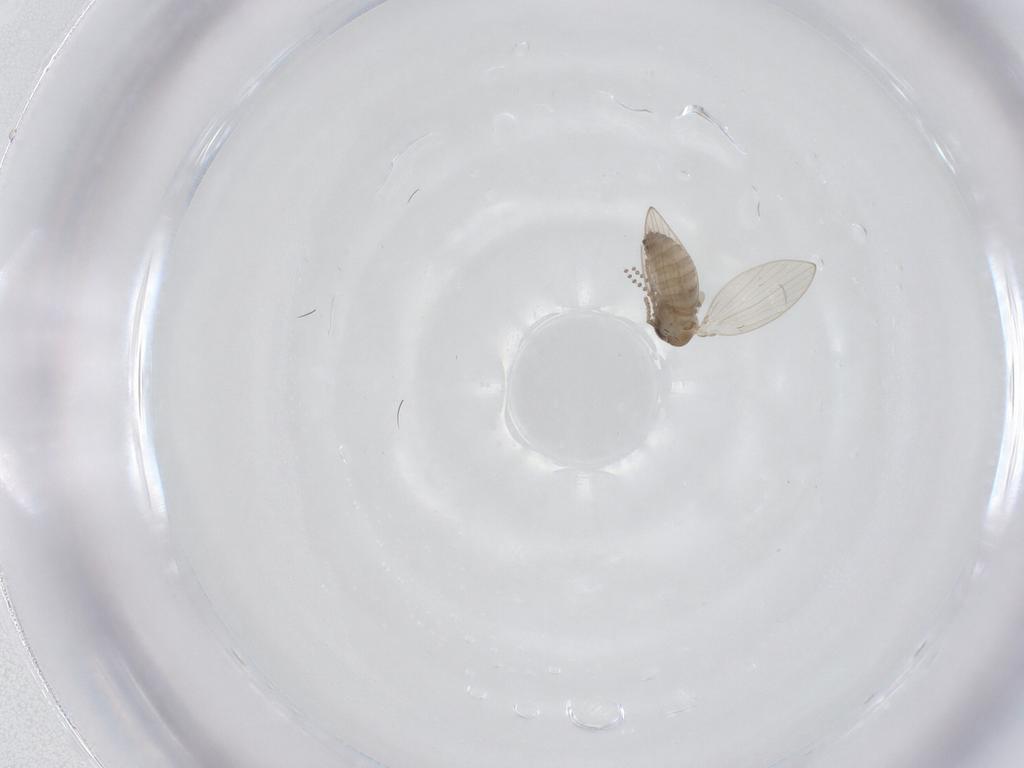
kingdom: Animalia
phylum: Arthropoda
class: Insecta
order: Diptera
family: Psychodidae
